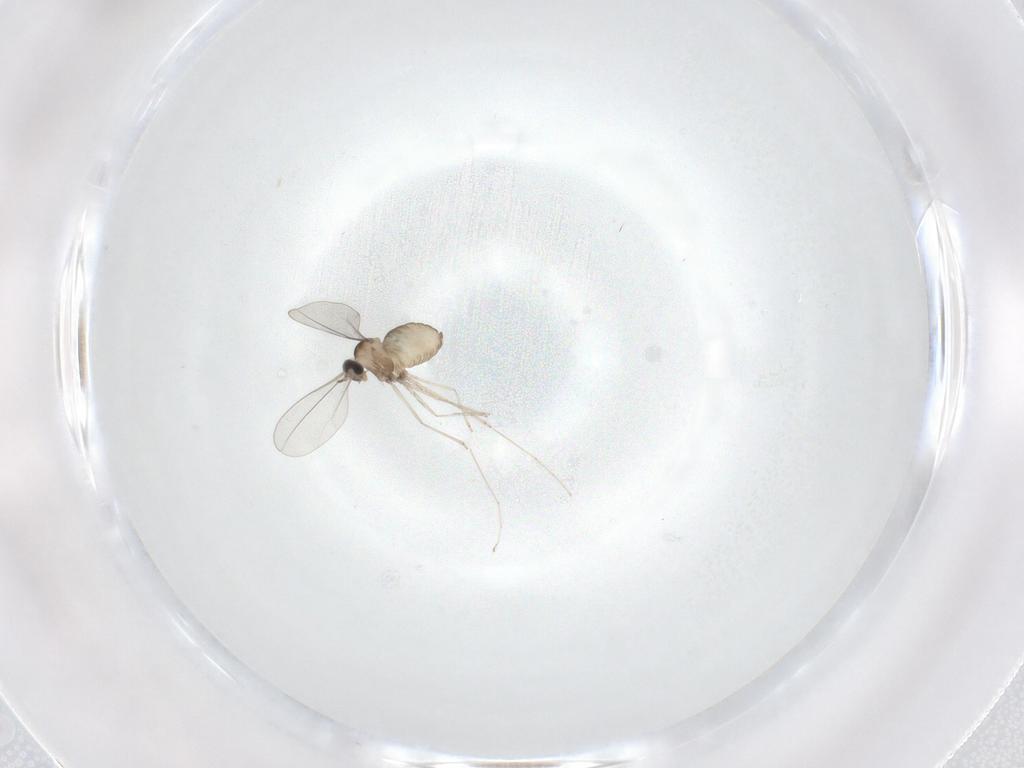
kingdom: Animalia
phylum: Arthropoda
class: Insecta
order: Diptera
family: Cecidomyiidae
